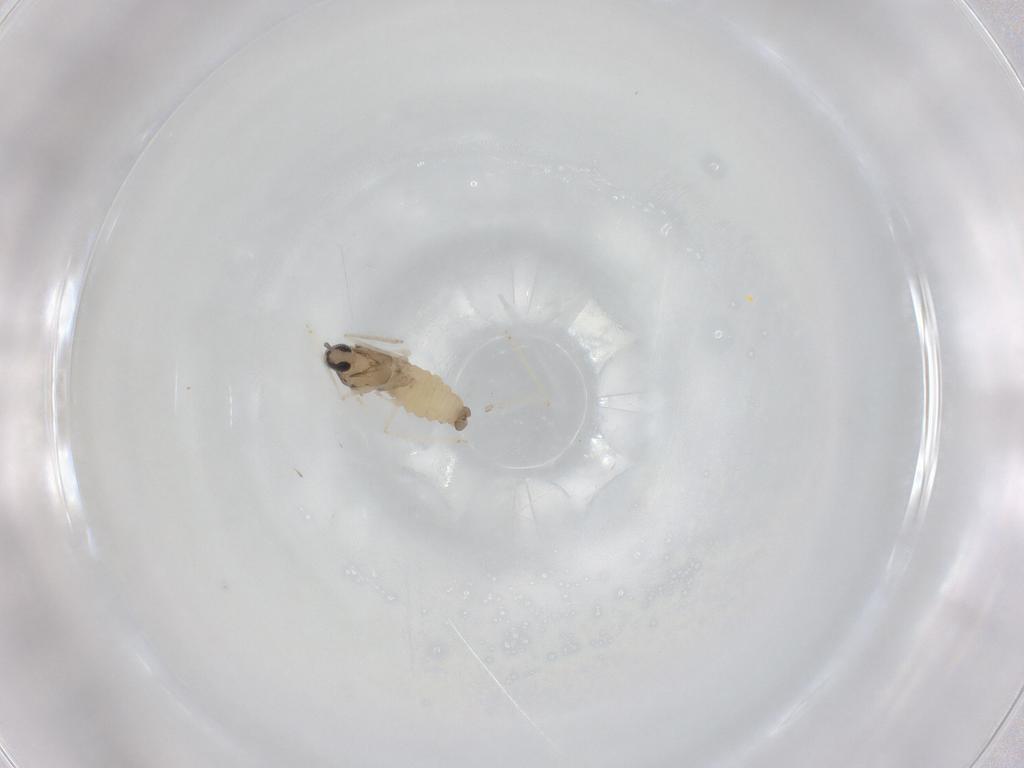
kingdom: Animalia
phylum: Arthropoda
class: Insecta
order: Diptera
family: Cecidomyiidae
